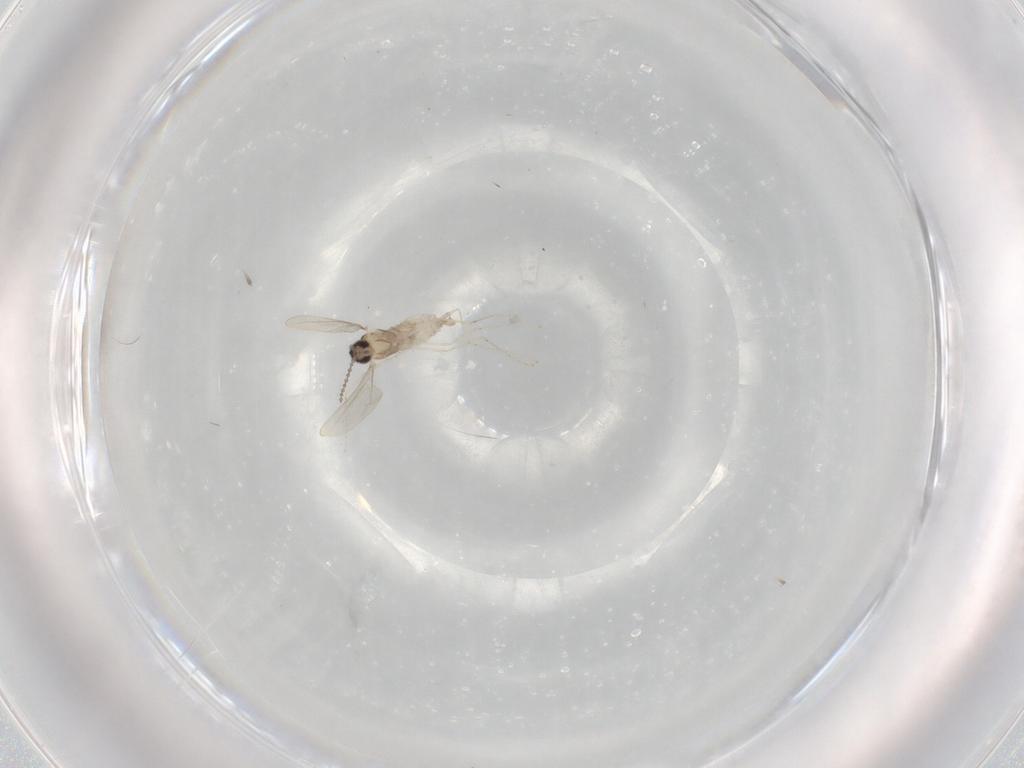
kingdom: Animalia
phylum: Arthropoda
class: Insecta
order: Diptera
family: Cecidomyiidae
